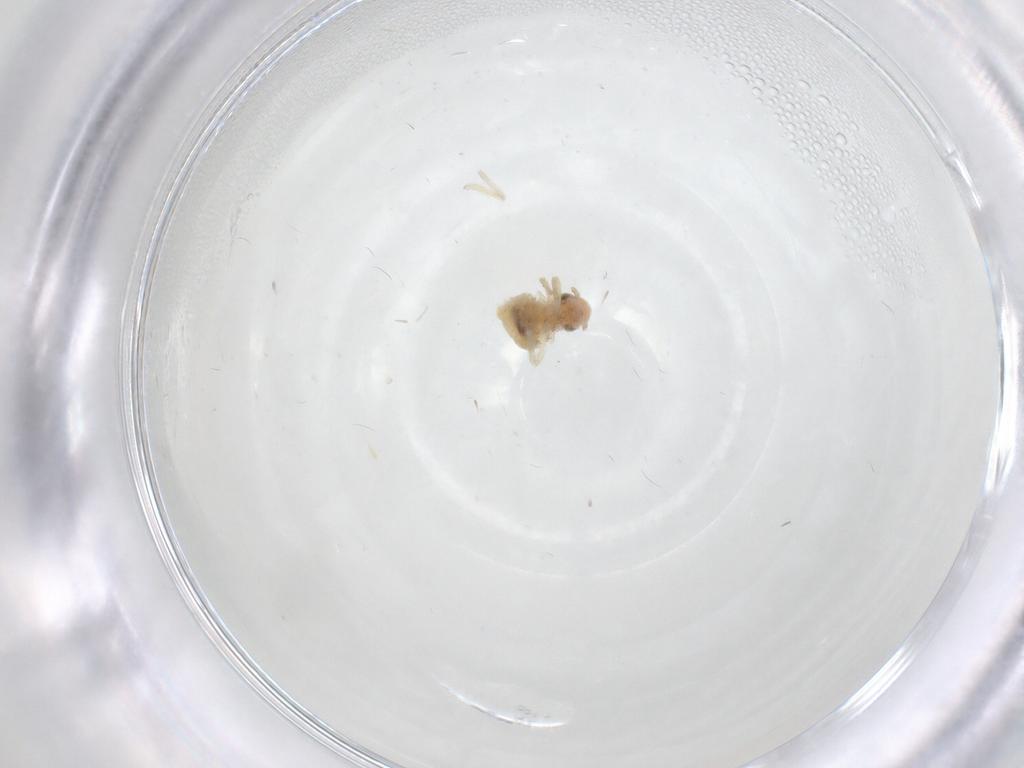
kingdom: Animalia
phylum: Arthropoda
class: Insecta
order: Psocodea
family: Caeciliusidae
